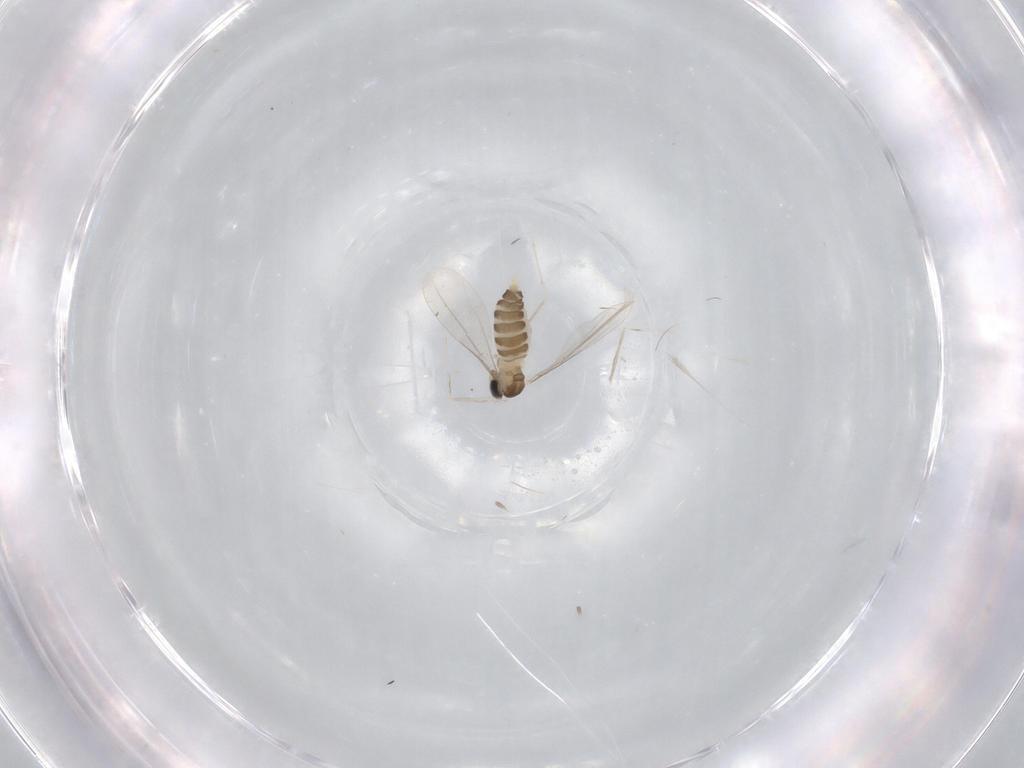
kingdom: Animalia
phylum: Arthropoda
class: Insecta
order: Diptera
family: Cecidomyiidae
